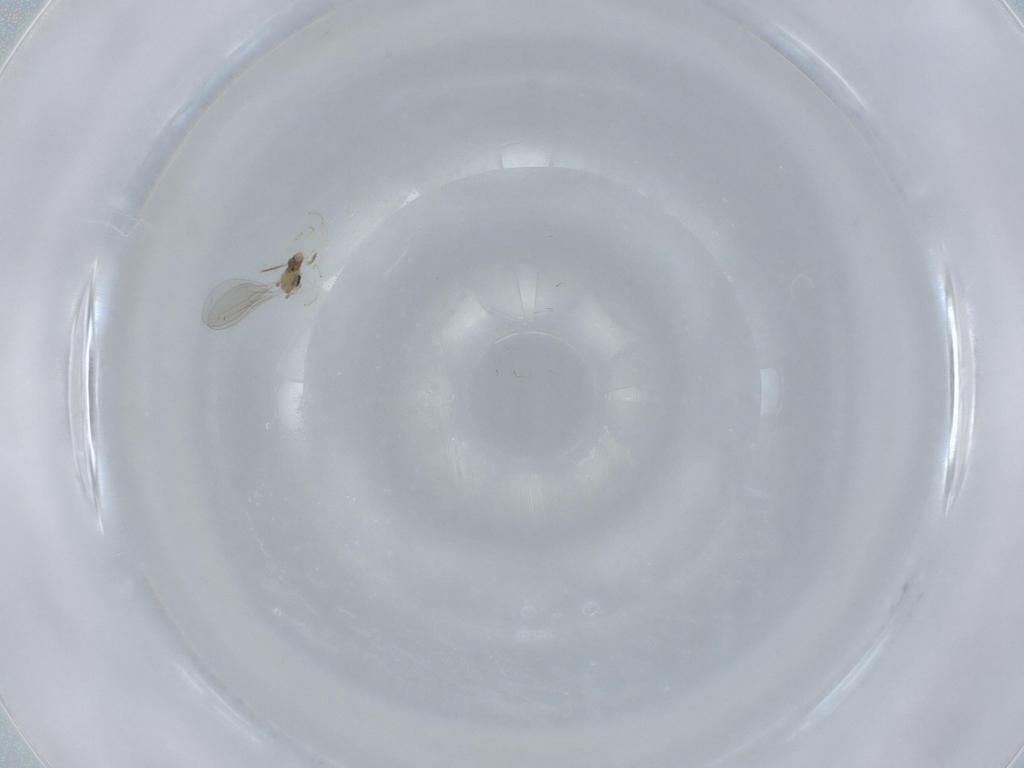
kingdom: Animalia
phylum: Arthropoda
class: Insecta
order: Diptera
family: Cecidomyiidae
